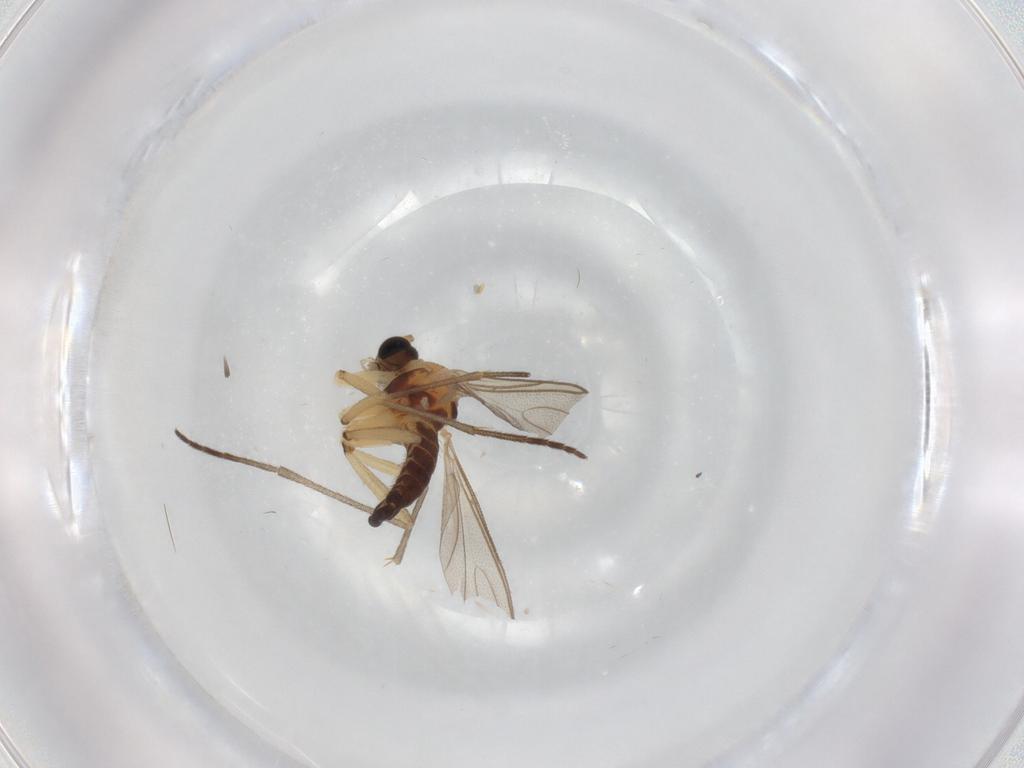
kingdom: Animalia
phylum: Arthropoda
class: Insecta
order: Diptera
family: Sciaridae
